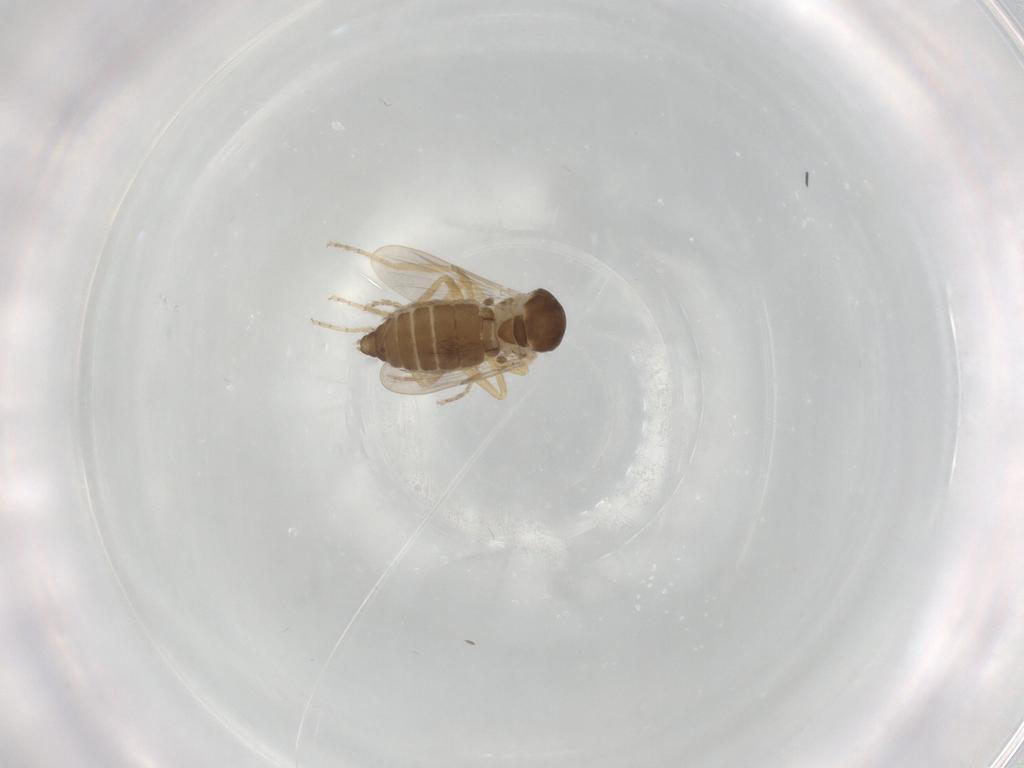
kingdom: Animalia
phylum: Arthropoda
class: Insecta
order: Diptera
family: Ceratopogonidae
